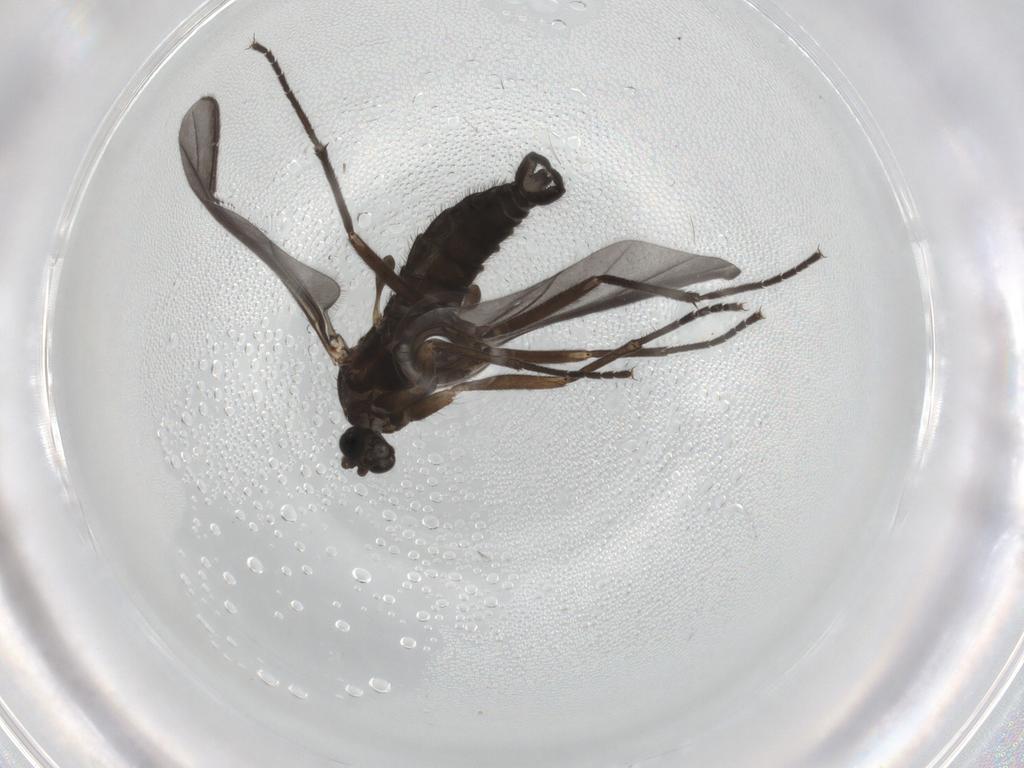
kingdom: Animalia
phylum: Arthropoda
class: Insecta
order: Diptera
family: Sciaridae
